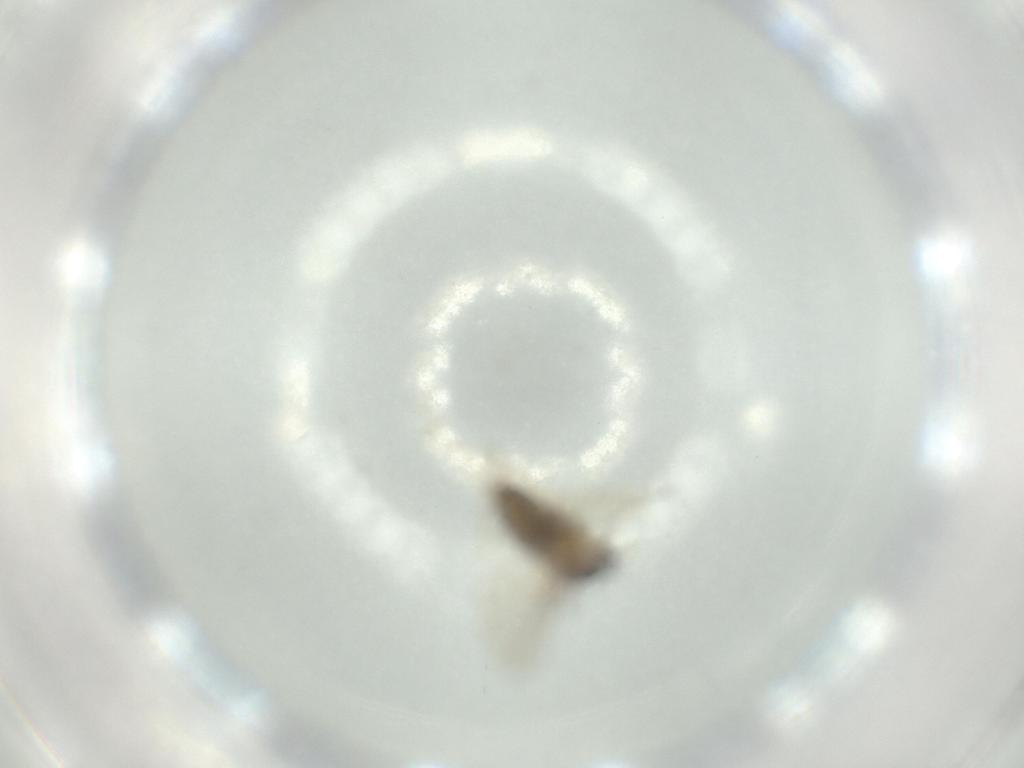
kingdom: Animalia
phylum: Arthropoda
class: Insecta
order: Diptera
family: Cecidomyiidae
